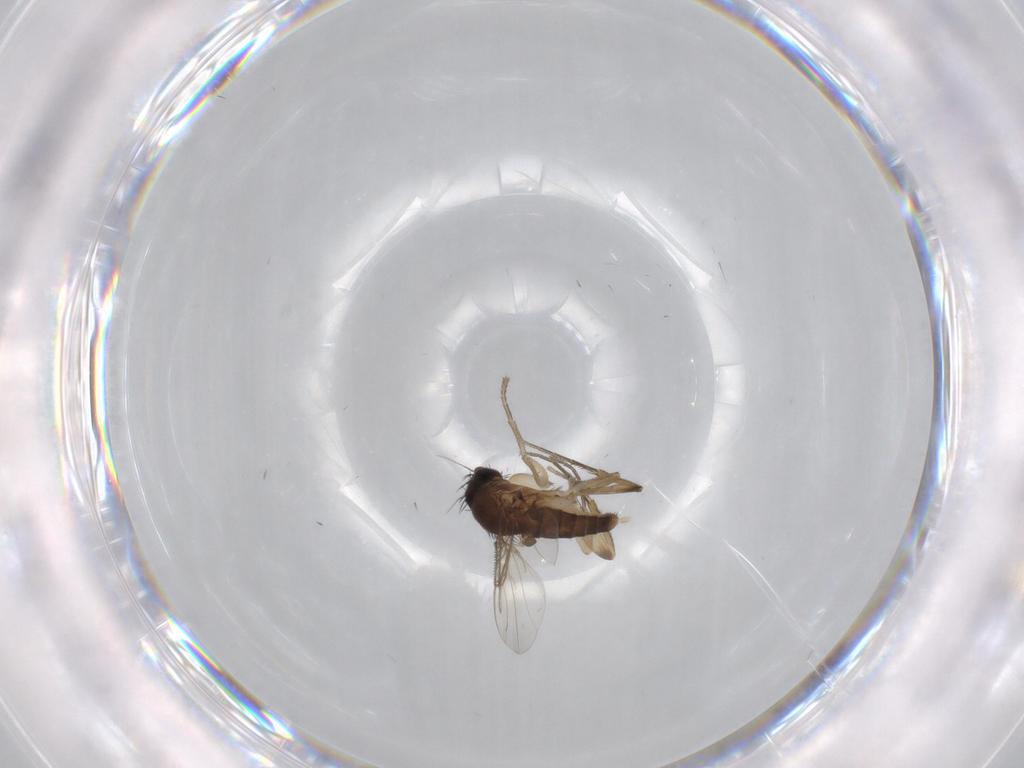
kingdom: Animalia
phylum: Arthropoda
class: Insecta
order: Diptera
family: Phoridae
